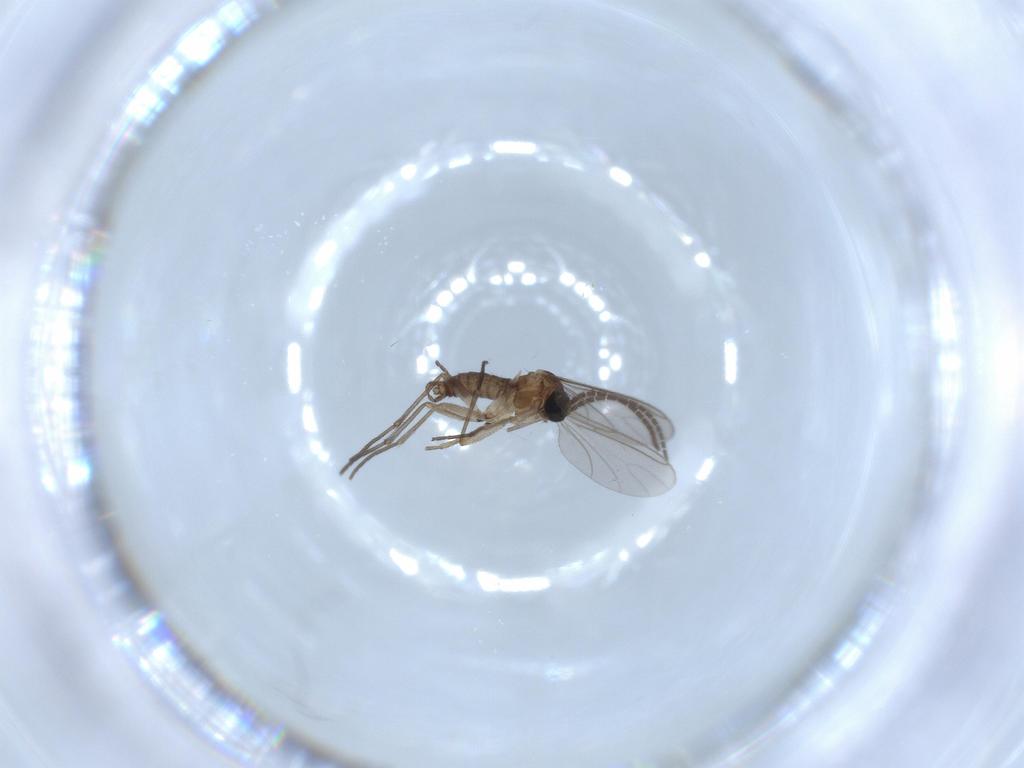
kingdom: Animalia
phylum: Arthropoda
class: Insecta
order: Diptera
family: Sciaridae
